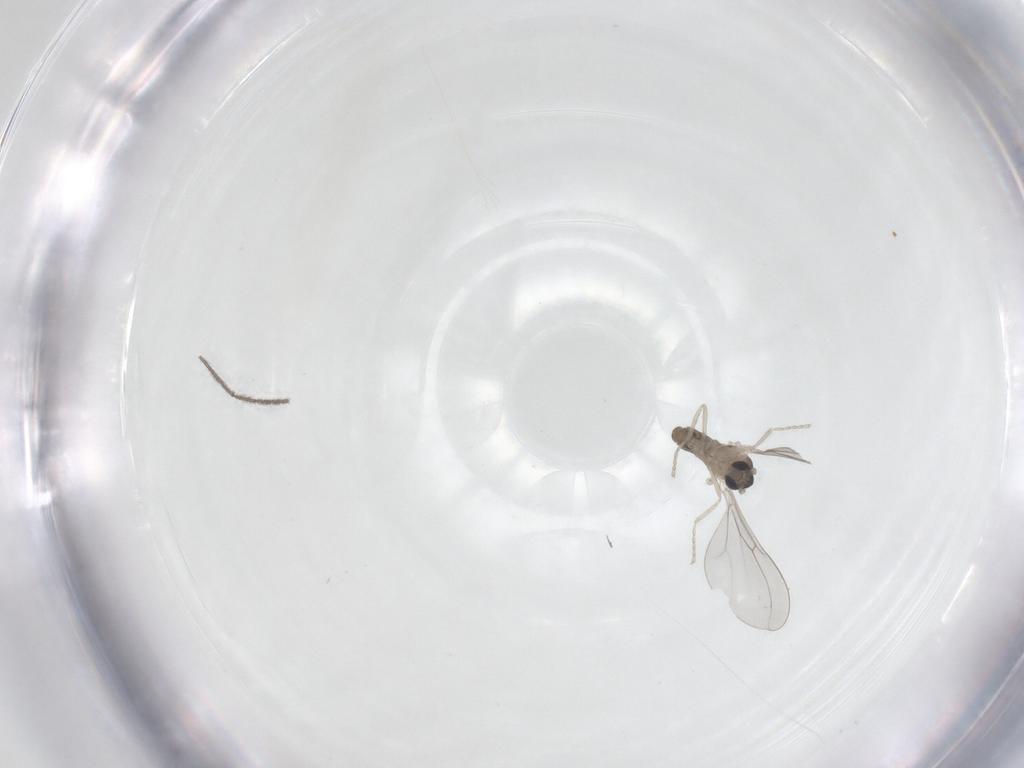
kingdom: Animalia
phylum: Arthropoda
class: Insecta
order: Diptera
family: Cecidomyiidae
